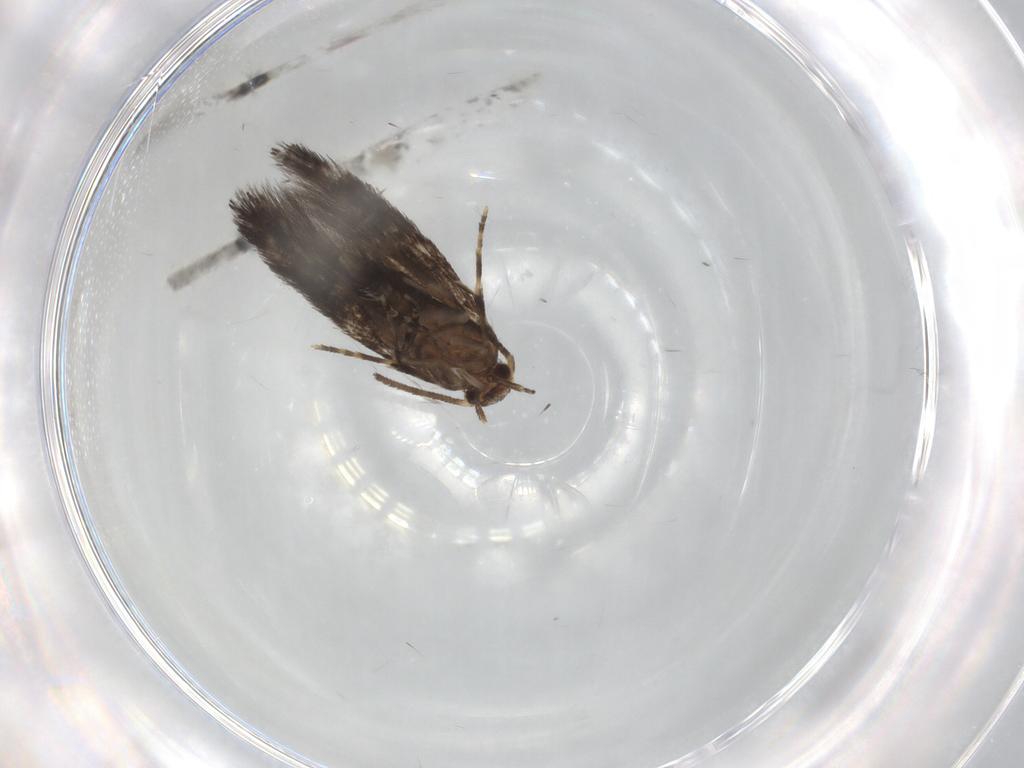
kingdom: Animalia
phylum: Arthropoda
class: Insecta
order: Lepidoptera
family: Elachistidae
